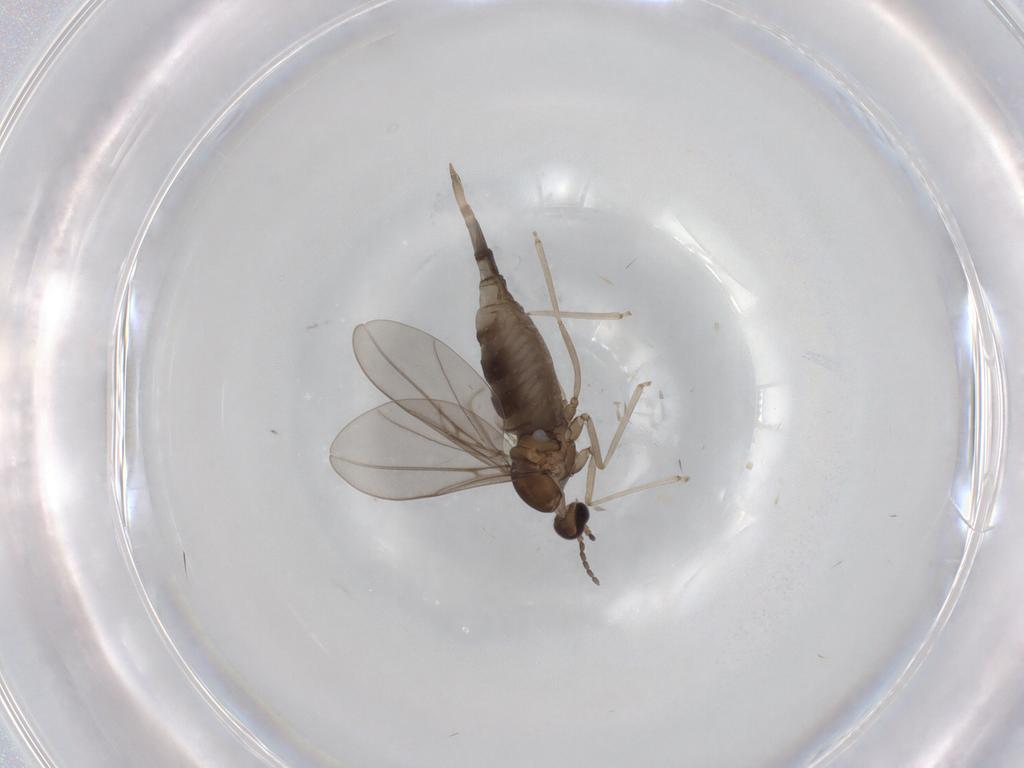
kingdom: Animalia
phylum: Arthropoda
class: Insecta
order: Diptera
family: Cecidomyiidae
